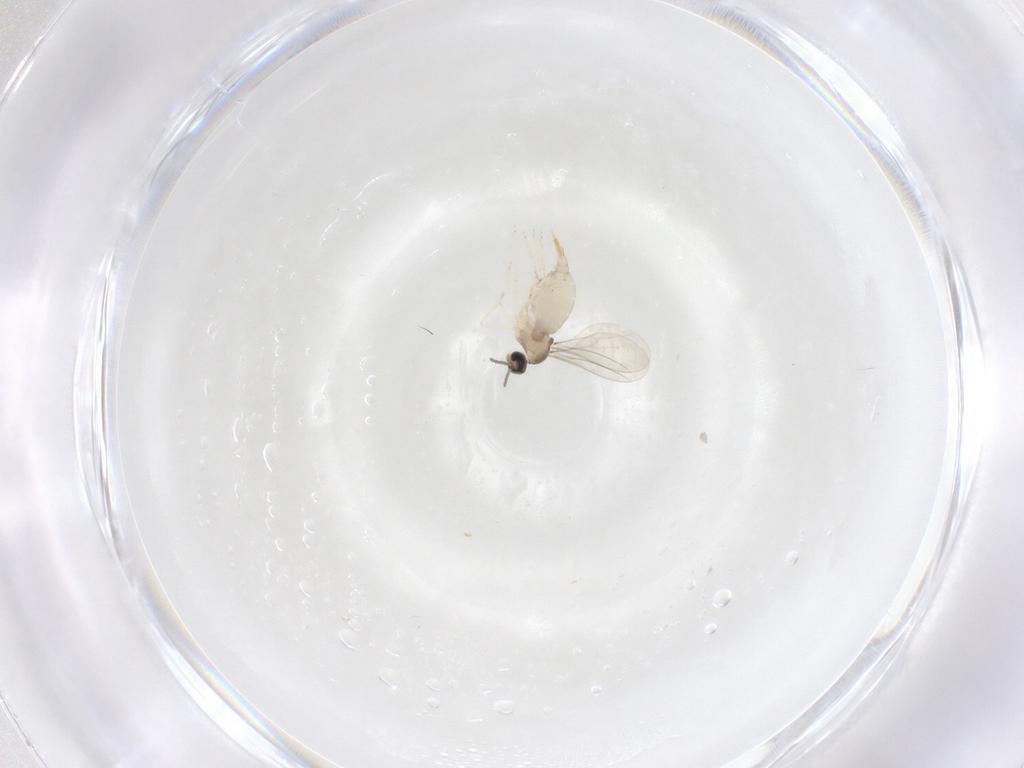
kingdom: Animalia
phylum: Arthropoda
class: Insecta
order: Diptera
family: Cecidomyiidae
